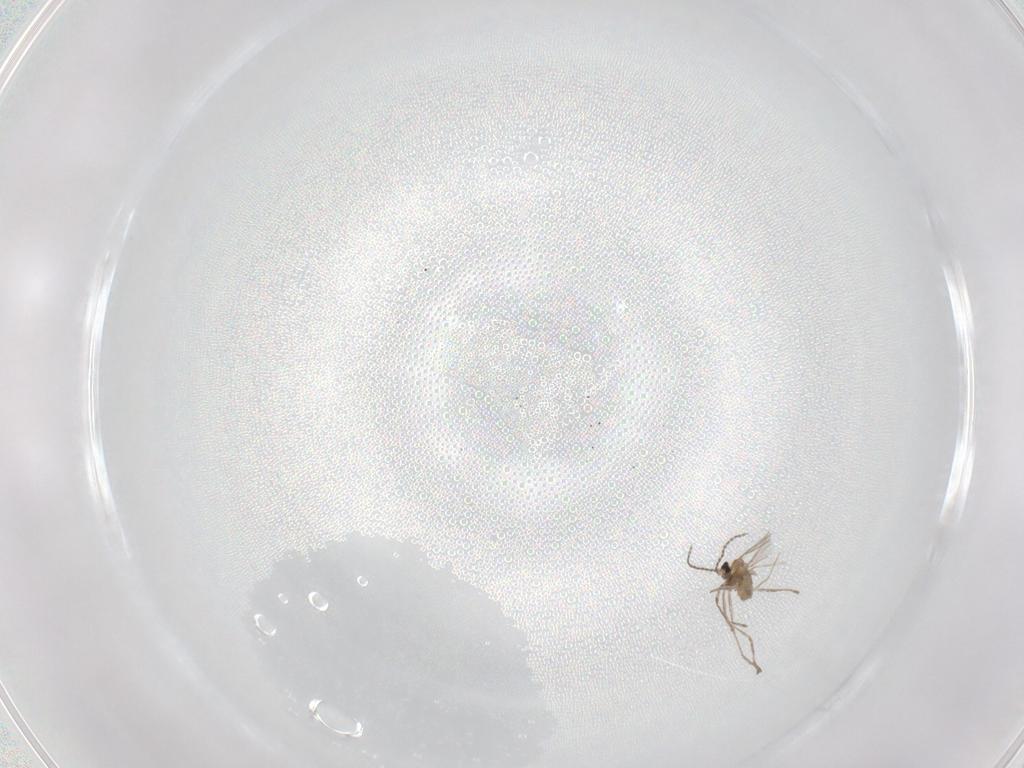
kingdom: Animalia
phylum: Arthropoda
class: Insecta
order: Diptera
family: Cecidomyiidae
